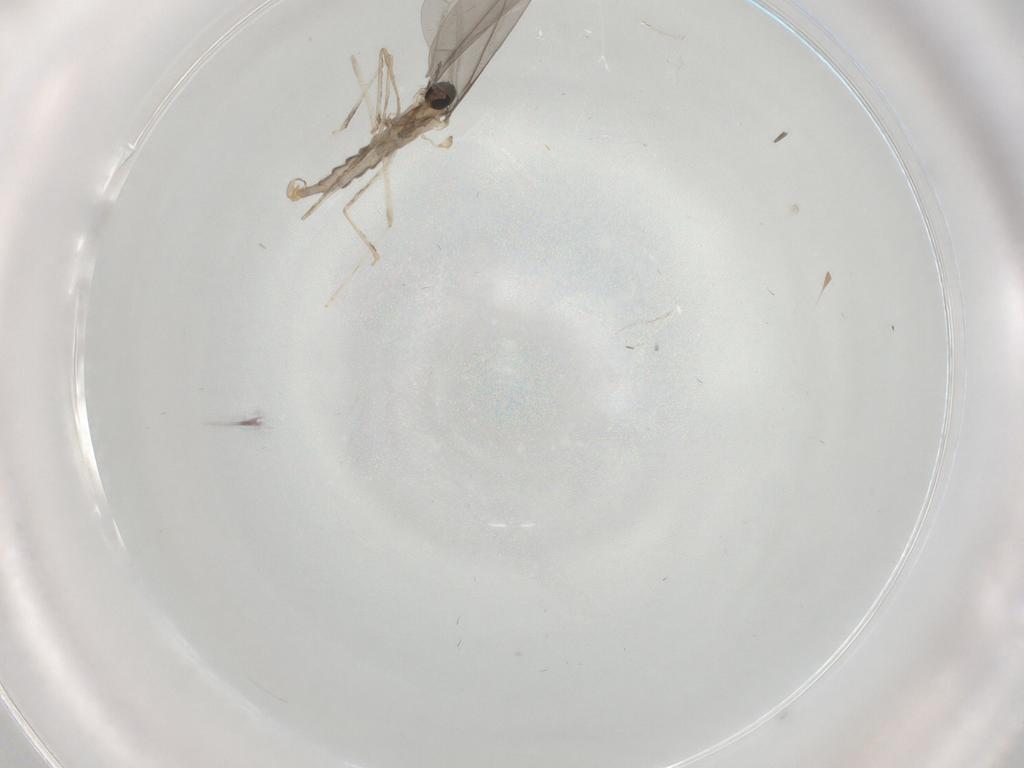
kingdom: Animalia
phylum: Arthropoda
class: Insecta
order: Diptera
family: Cecidomyiidae
